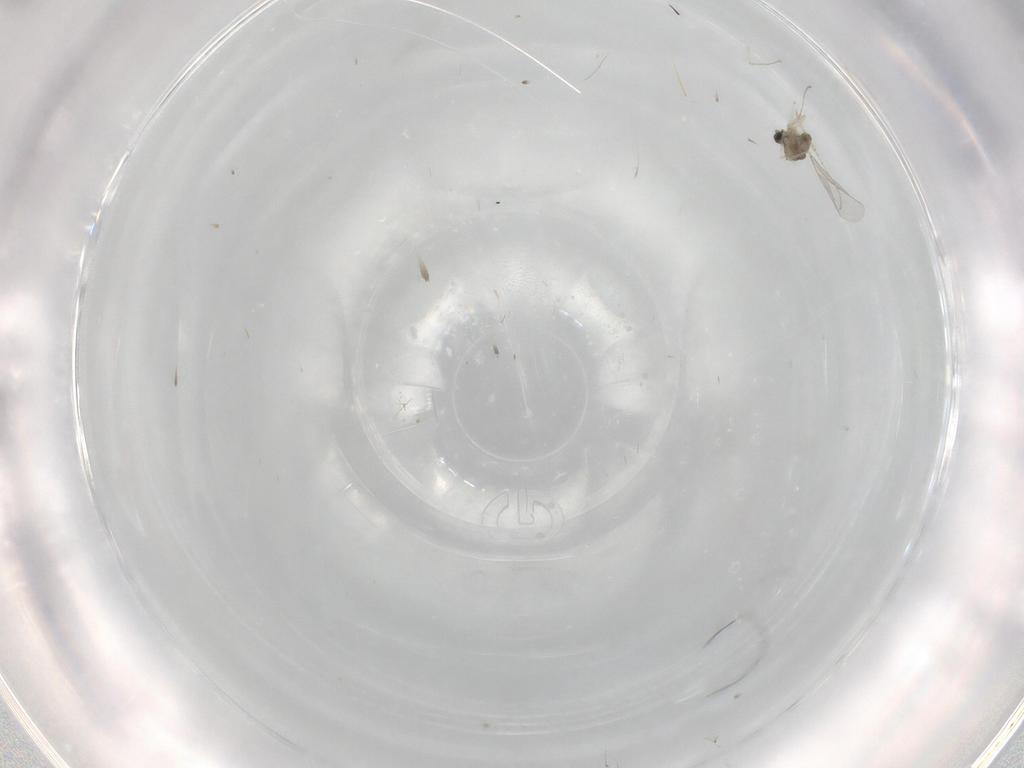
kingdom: Animalia
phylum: Arthropoda
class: Insecta
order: Diptera
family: Cecidomyiidae
